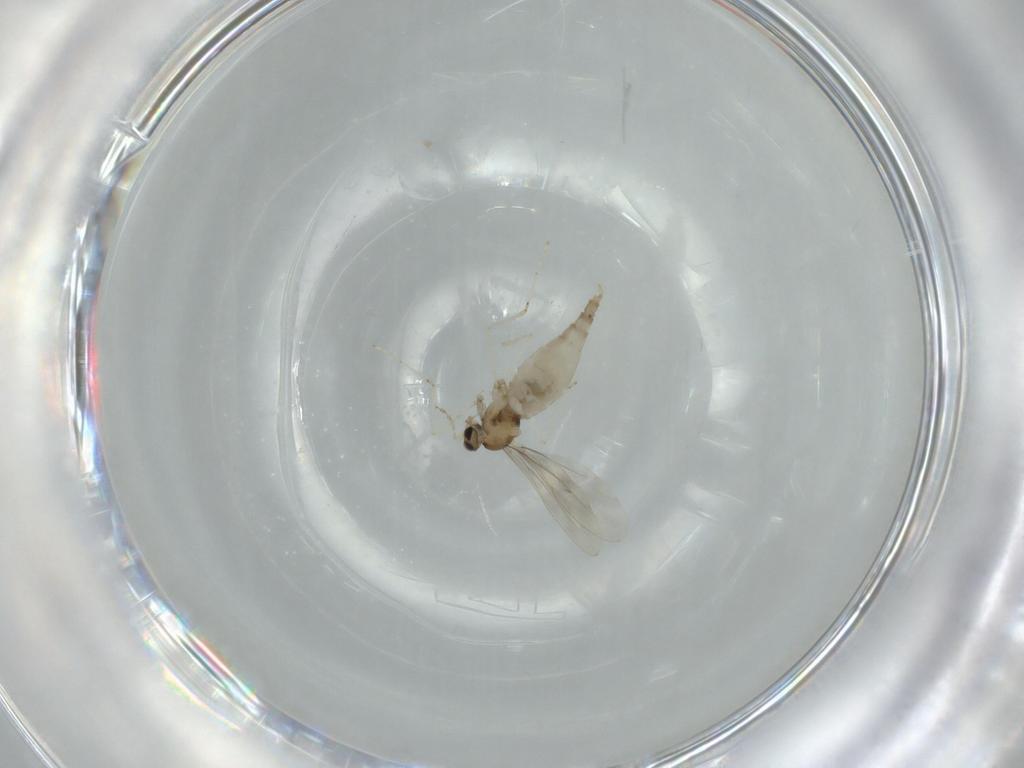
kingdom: Animalia
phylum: Arthropoda
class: Insecta
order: Diptera
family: Cecidomyiidae
